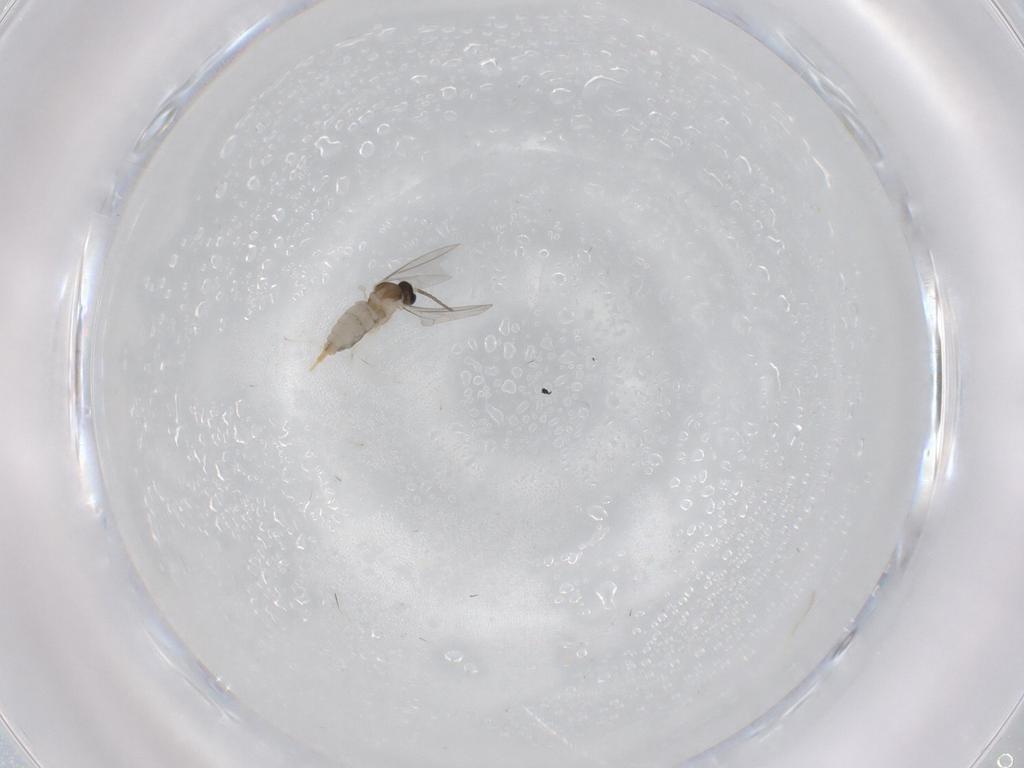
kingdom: Animalia
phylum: Arthropoda
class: Insecta
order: Diptera
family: Cecidomyiidae
